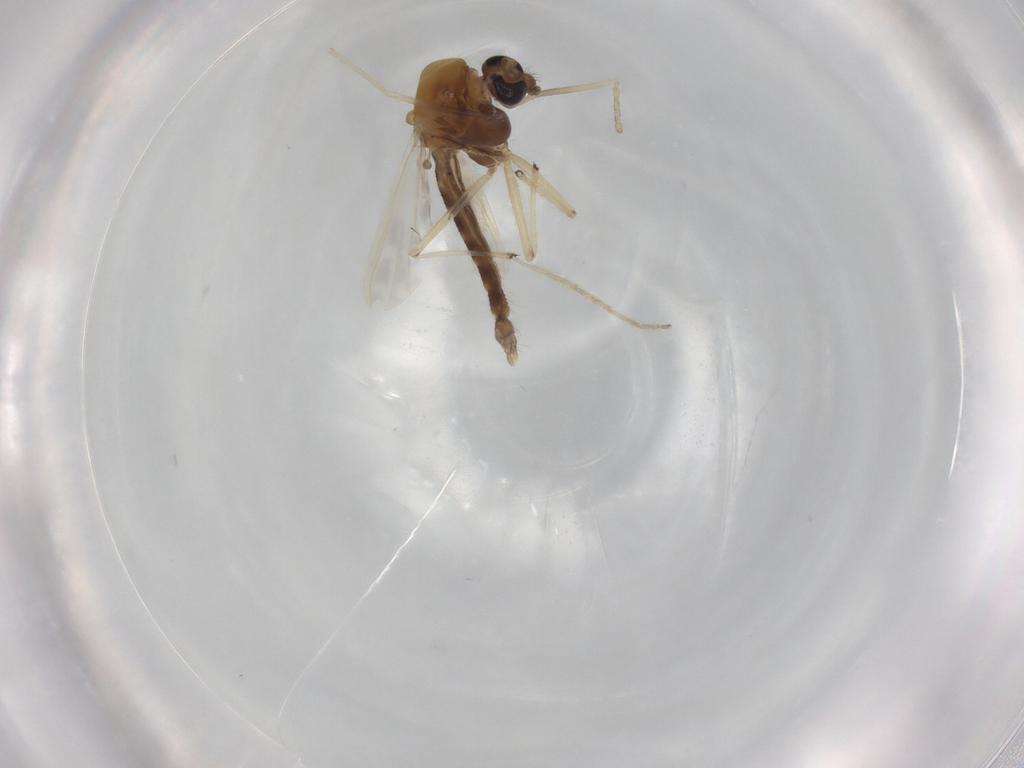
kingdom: Animalia
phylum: Arthropoda
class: Insecta
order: Diptera
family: Chironomidae
